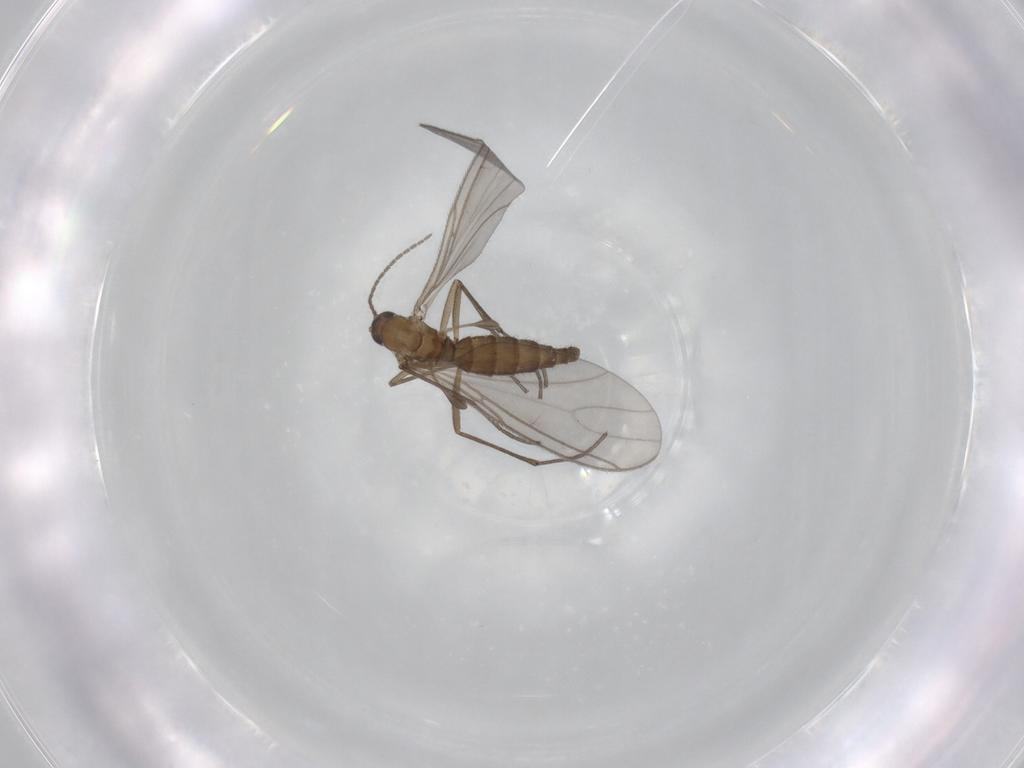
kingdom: Animalia
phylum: Arthropoda
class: Insecta
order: Diptera
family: Sciaridae
